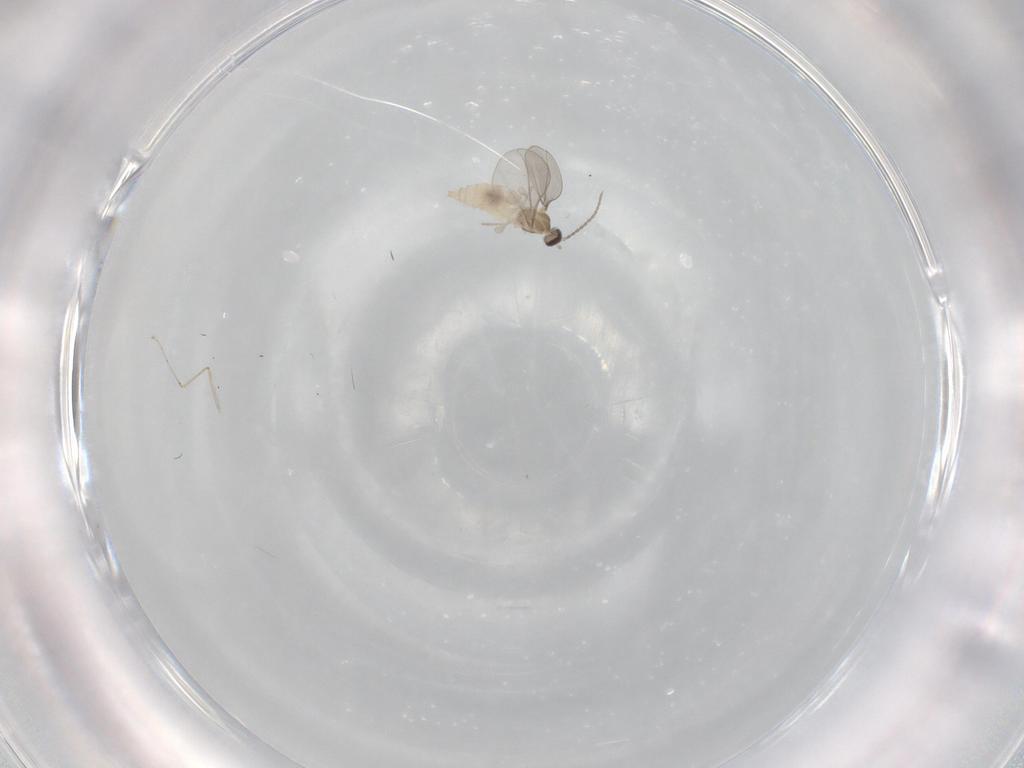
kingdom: Animalia
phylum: Arthropoda
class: Insecta
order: Diptera
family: Cecidomyiidae
